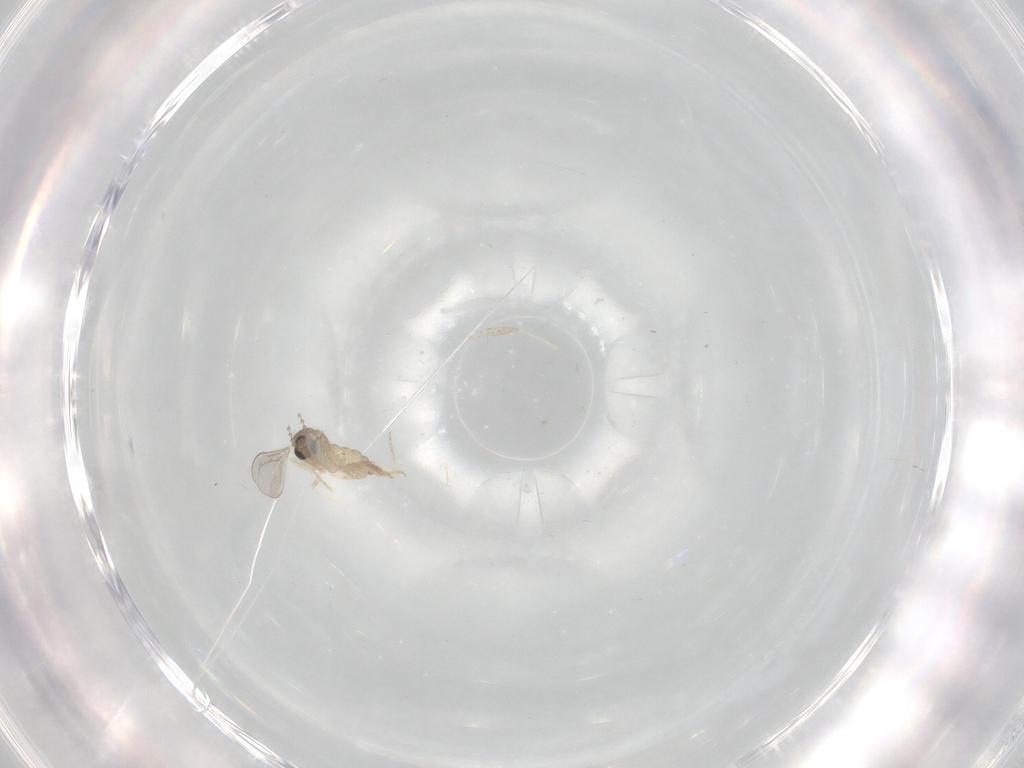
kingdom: Animalia
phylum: Arthropoda
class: Insecta
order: Diptera
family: Cecidomyiidae
